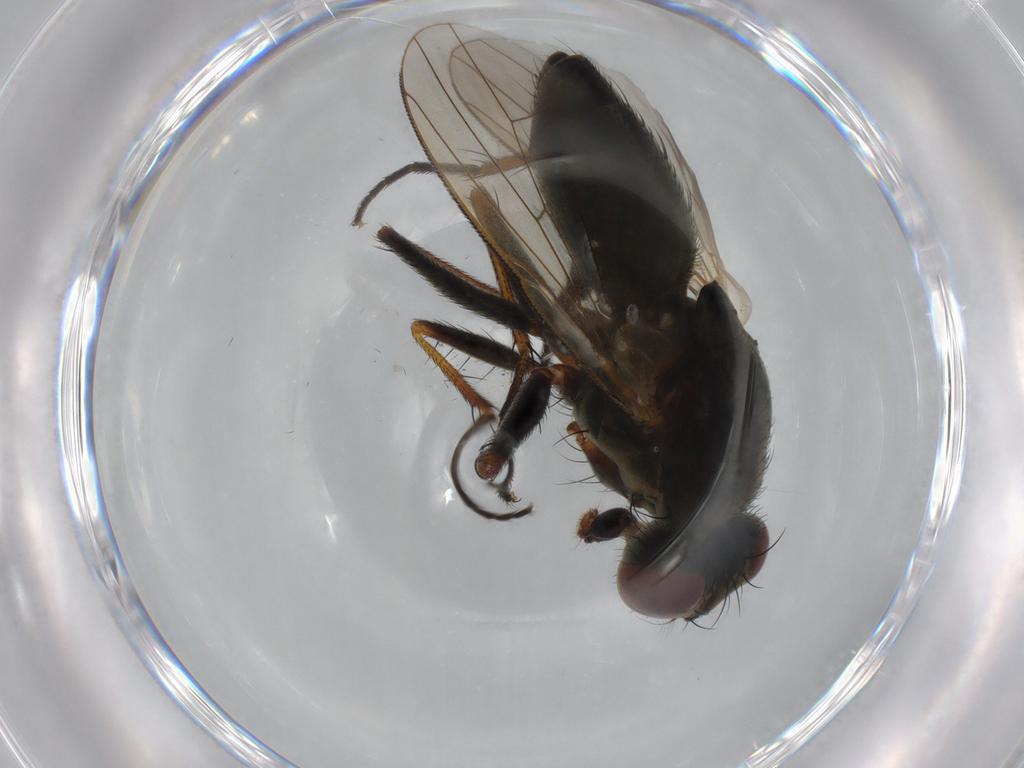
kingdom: Animalia
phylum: Arthropoda
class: Insecta
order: Diptera
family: Muscidae
